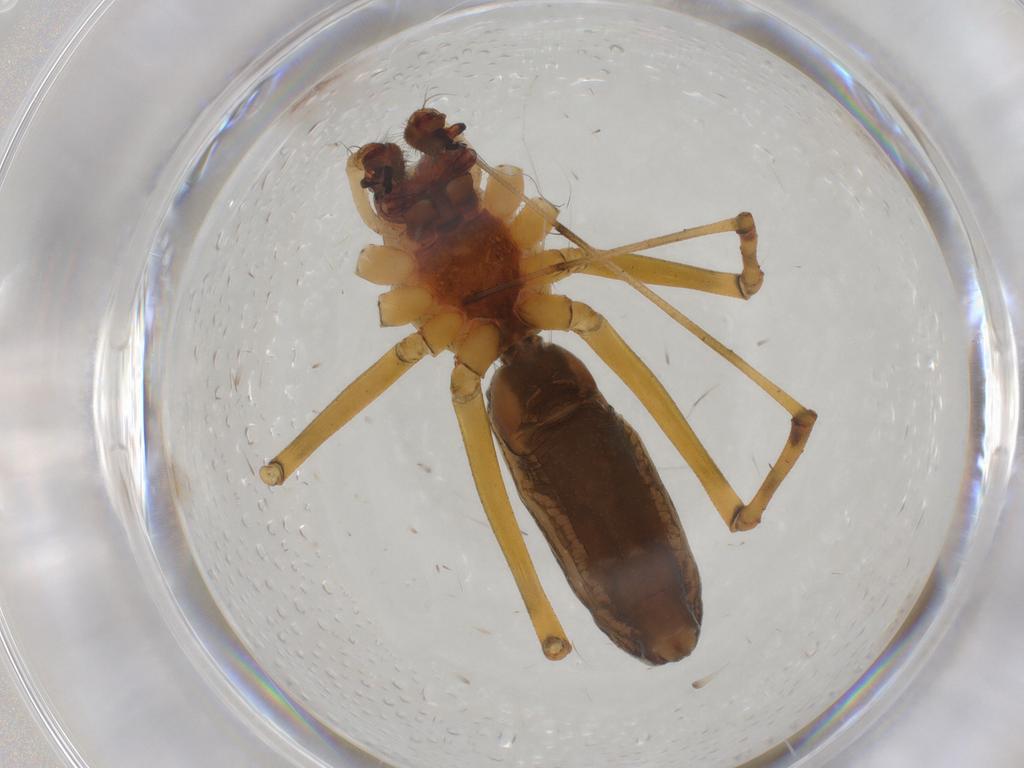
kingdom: Animalia
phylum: Arthropoda
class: Arachnida
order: Araneae
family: Linyphiidae
